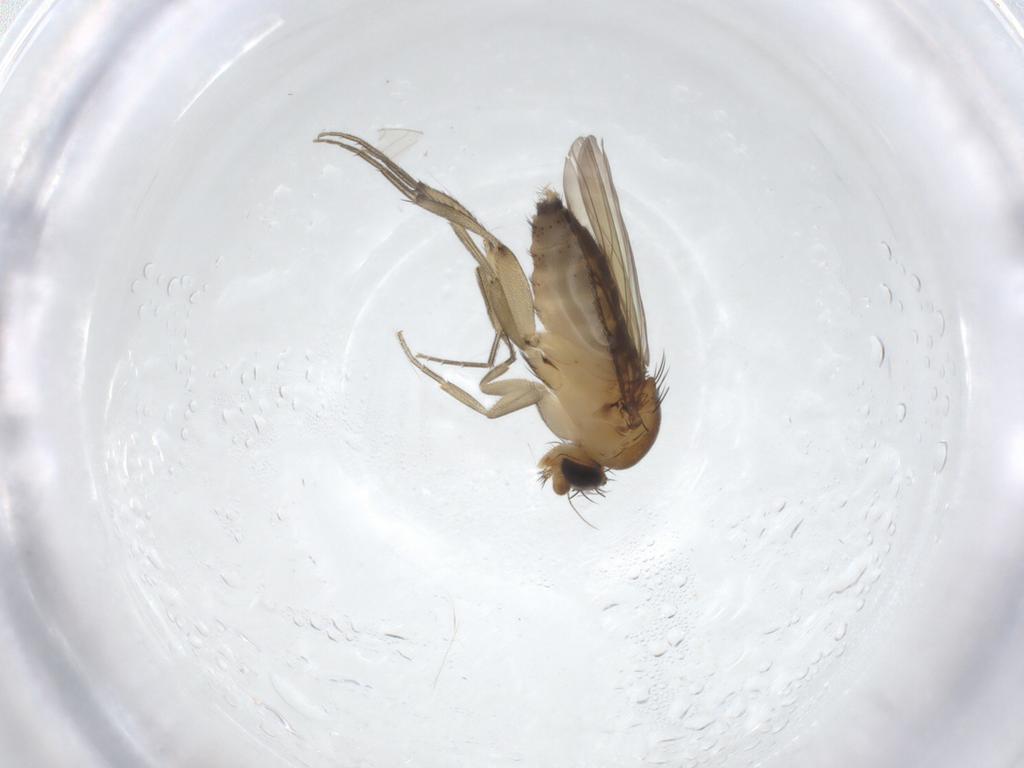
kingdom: Animalia
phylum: Arthropoda
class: Insecta
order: Diptera
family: Phoridae
